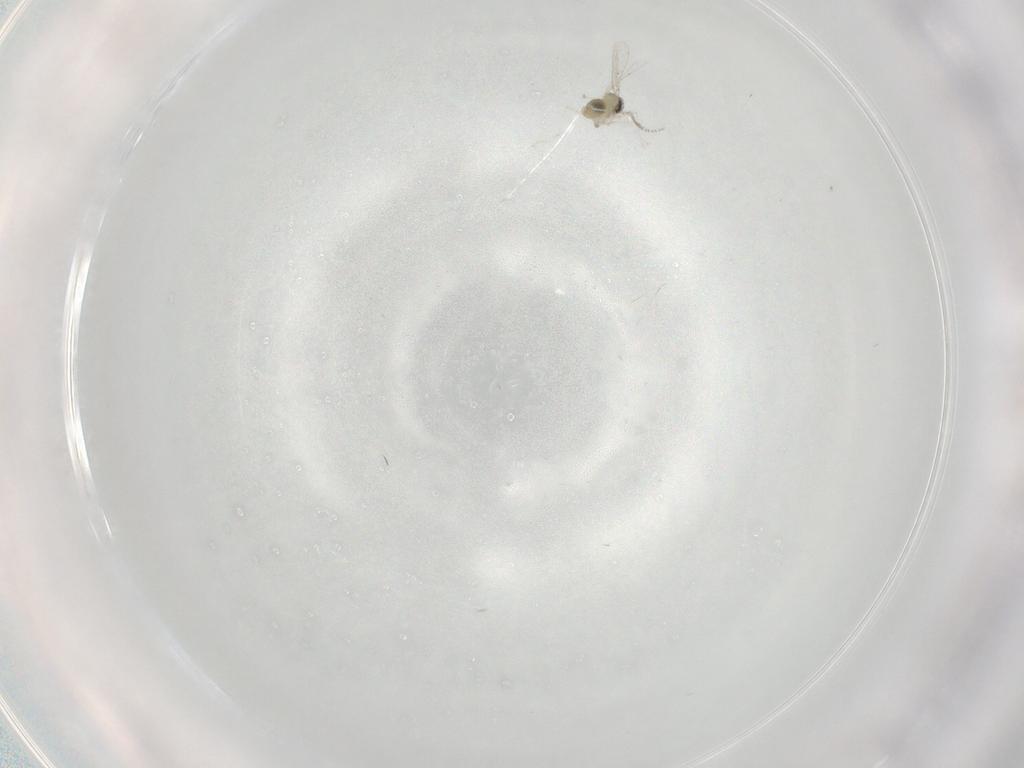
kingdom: Animalia
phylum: Arthropoda
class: Insecta
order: Diptera
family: Cecidomyiidae
